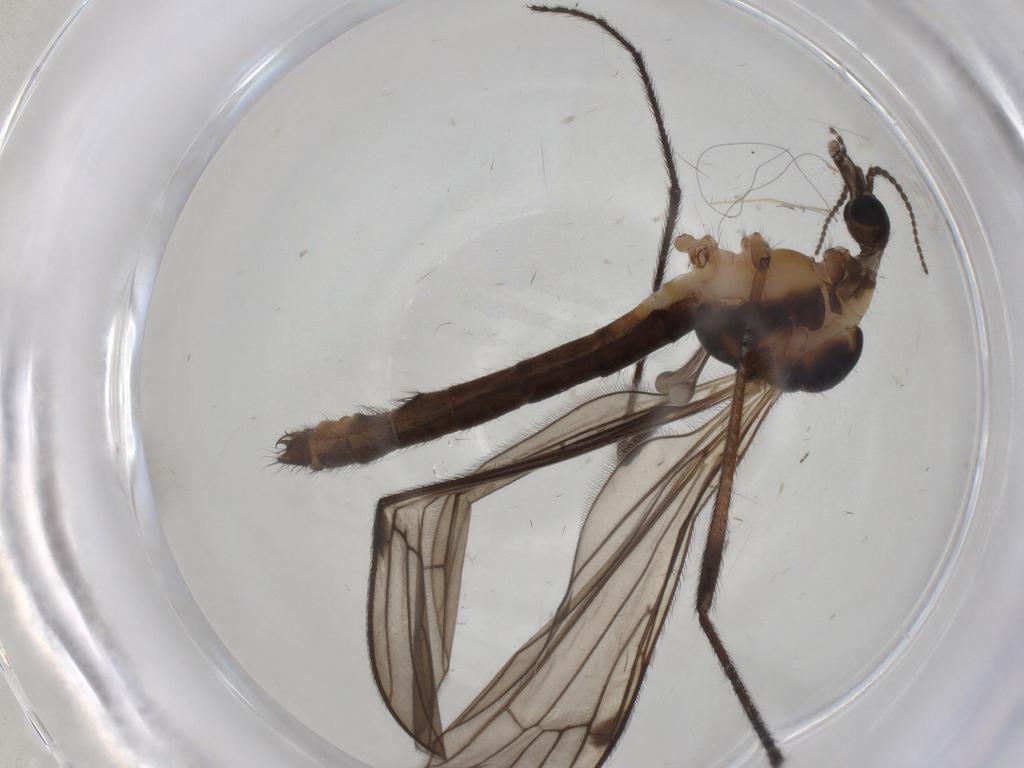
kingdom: Animalia
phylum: Arthropoda
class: Insecta
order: Diptera
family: Limoniidae
